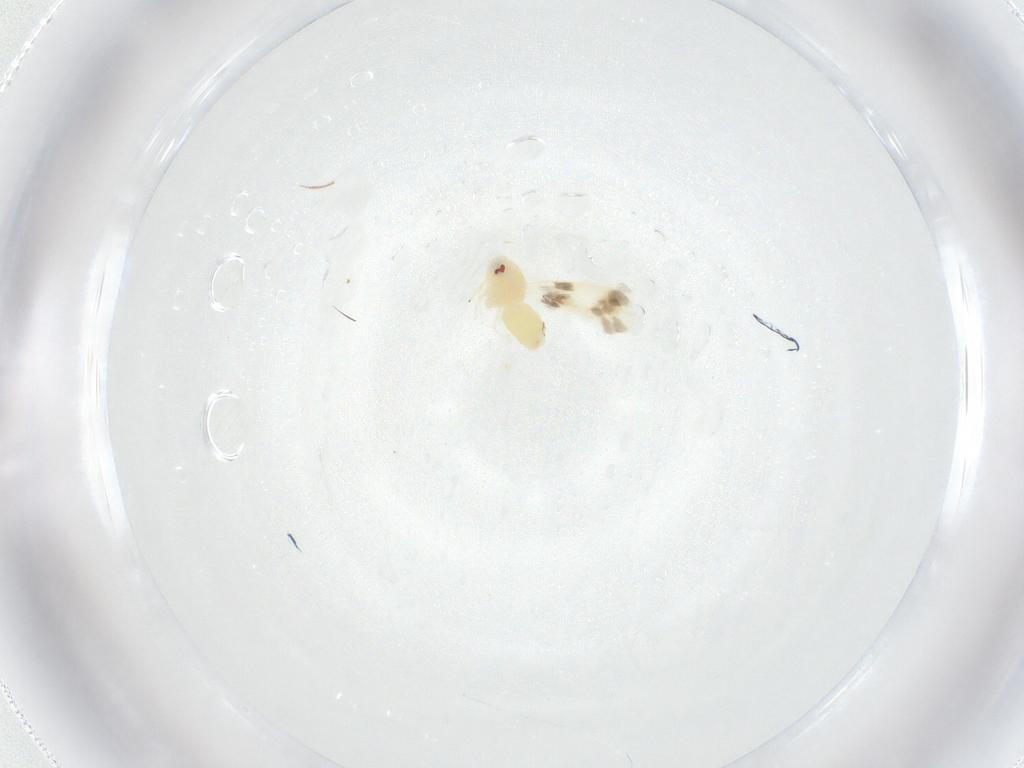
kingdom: Animalia
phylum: Arthropoda
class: Insecta
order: Hemiptera
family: Aleyrodidae
